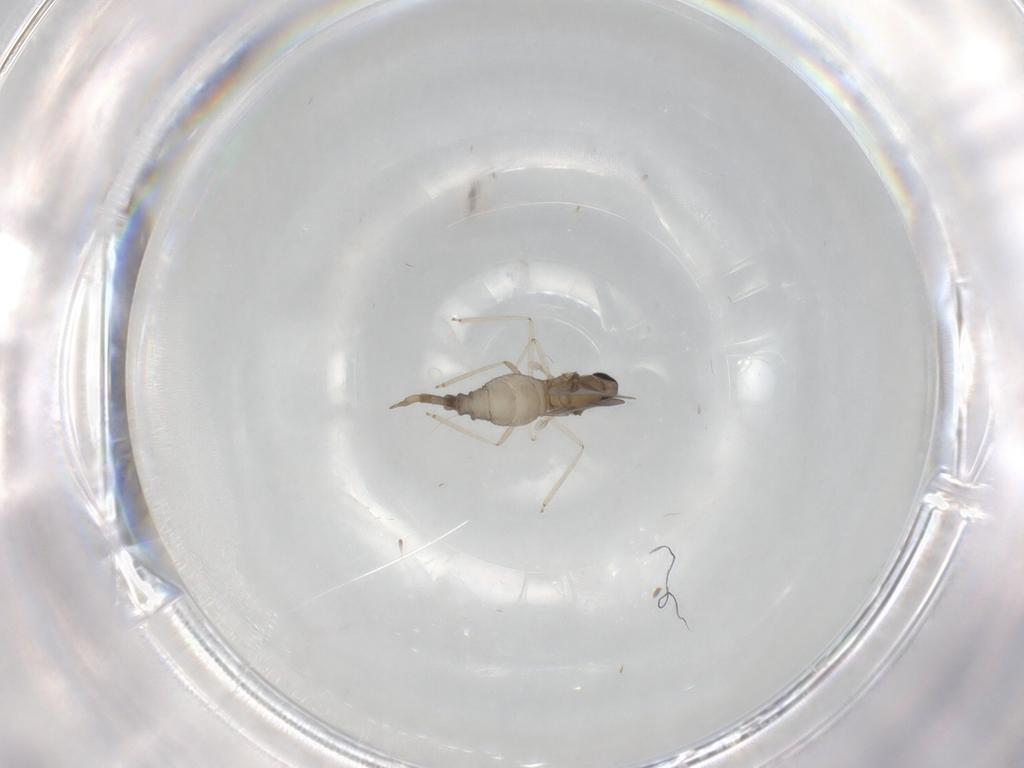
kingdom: Animalia
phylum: Arthropoda
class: Insecta
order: Diptera
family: Cecidomyiidae
